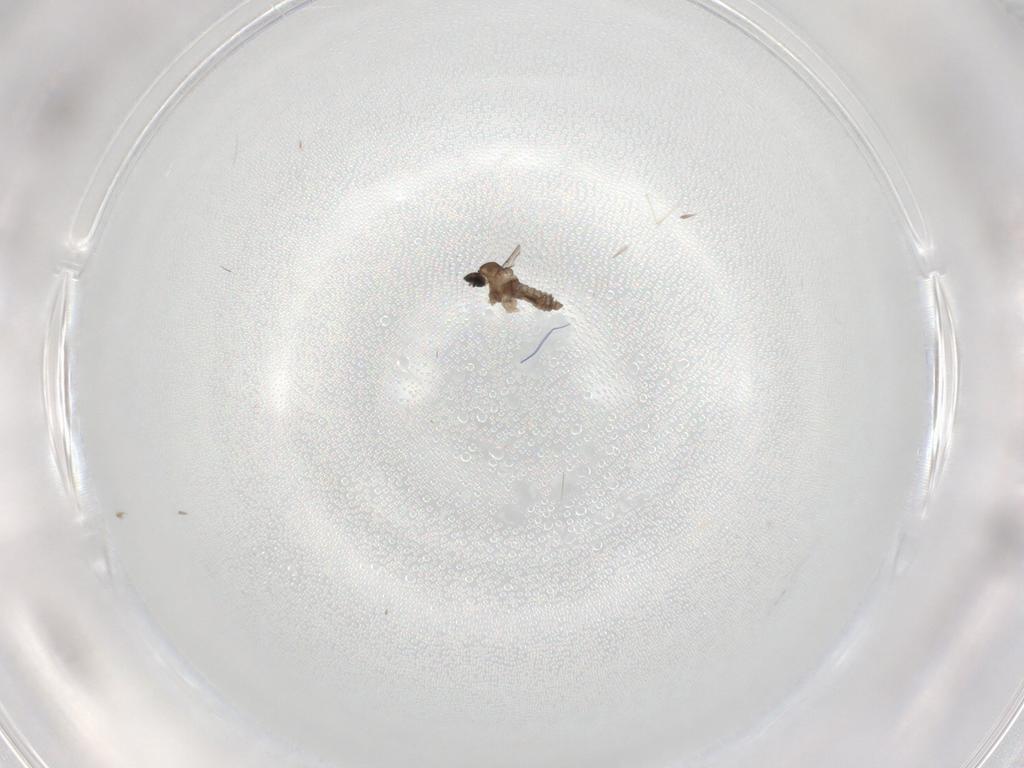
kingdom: Animalia
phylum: Arthropoda
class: Insecta
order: Diptera
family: Cecidomyiidae
